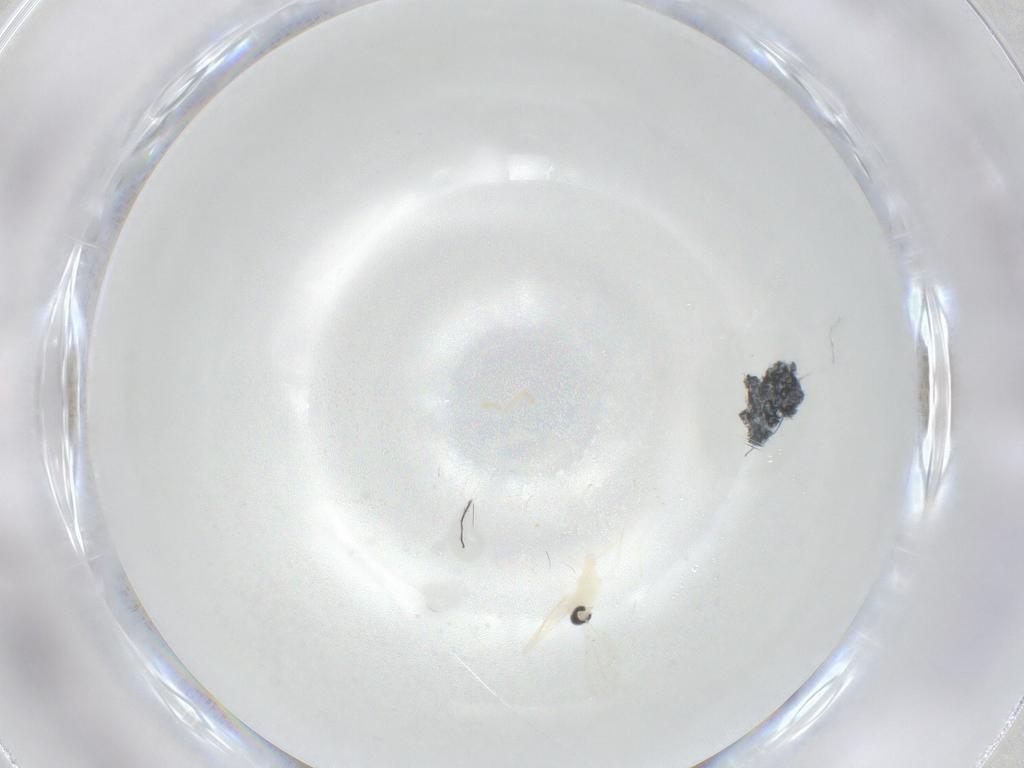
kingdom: Animalia
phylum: Arthropoda
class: Insecta
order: Diptera
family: Cecidomyiidae
